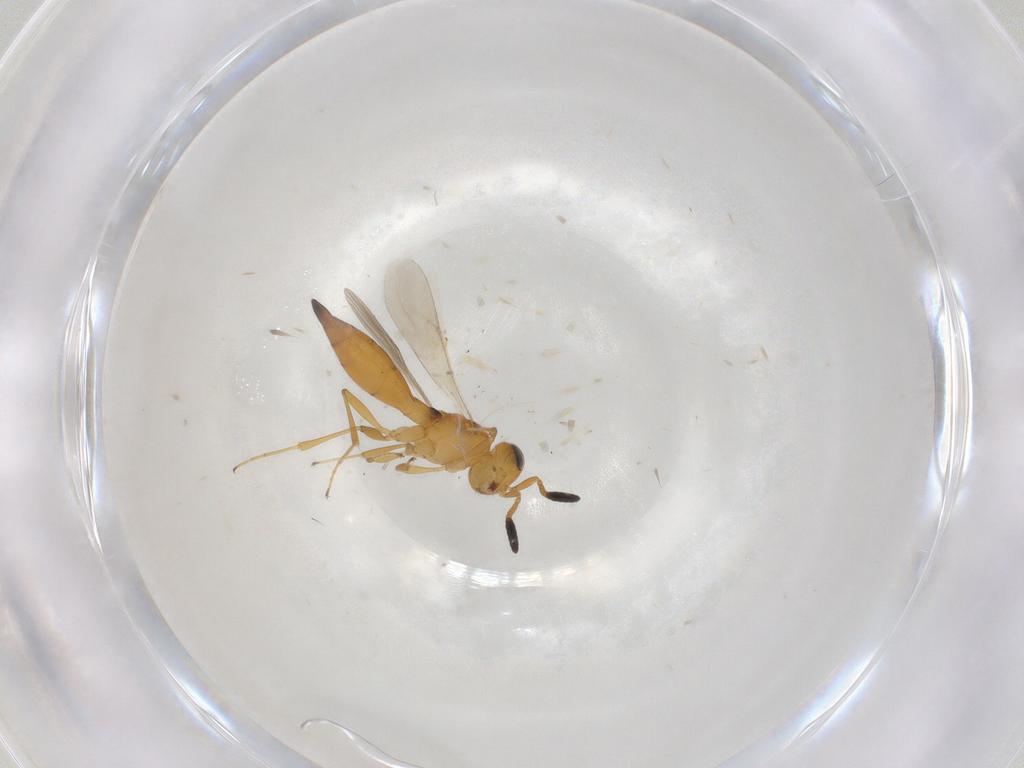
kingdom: Animalia
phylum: Arthropoda
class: Insecta
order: Hymenoptera
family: Scelionidae
